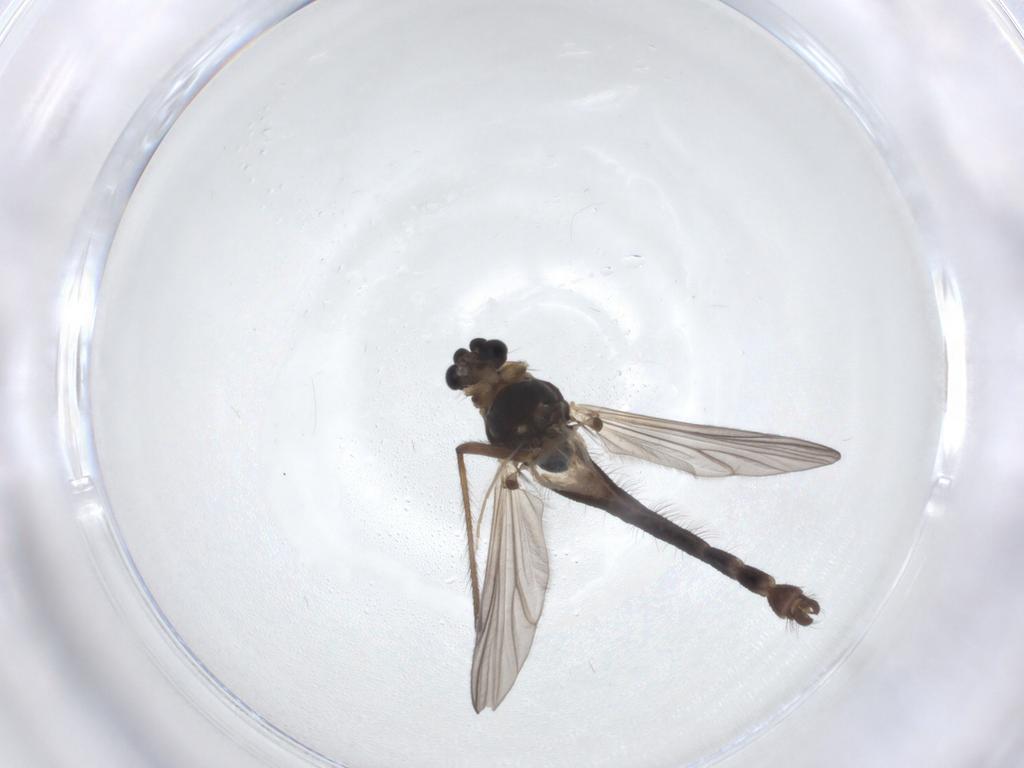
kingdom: Animalia
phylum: Arthropoda
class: Insecta
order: Diptera
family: Chironomidae
